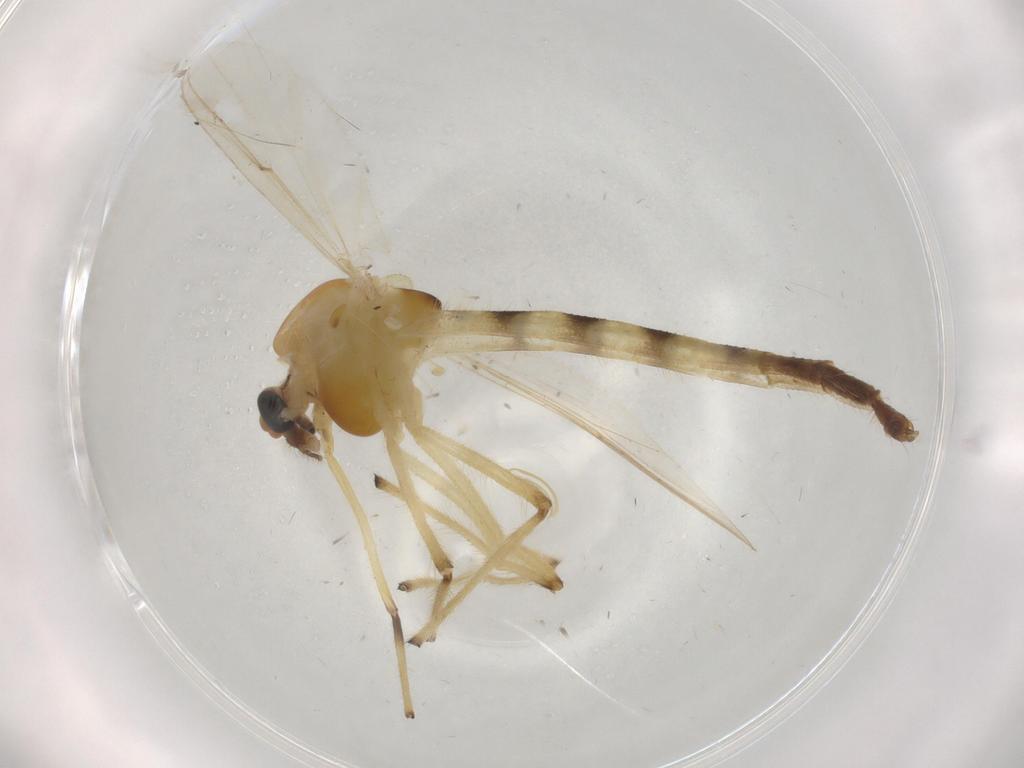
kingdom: Animalia
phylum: Arthropoda
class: Insecta
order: Diptera
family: Chironomidae
